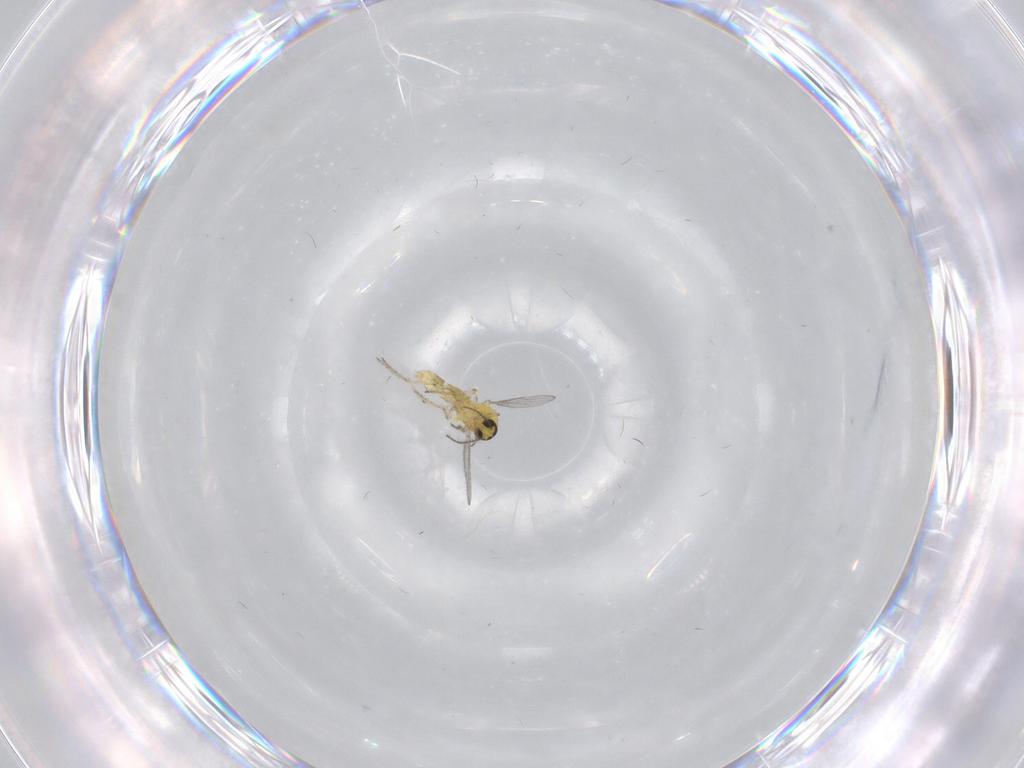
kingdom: Animalia
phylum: Arthropoda
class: Insecta
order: Diptera
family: Ceratopogonidae
